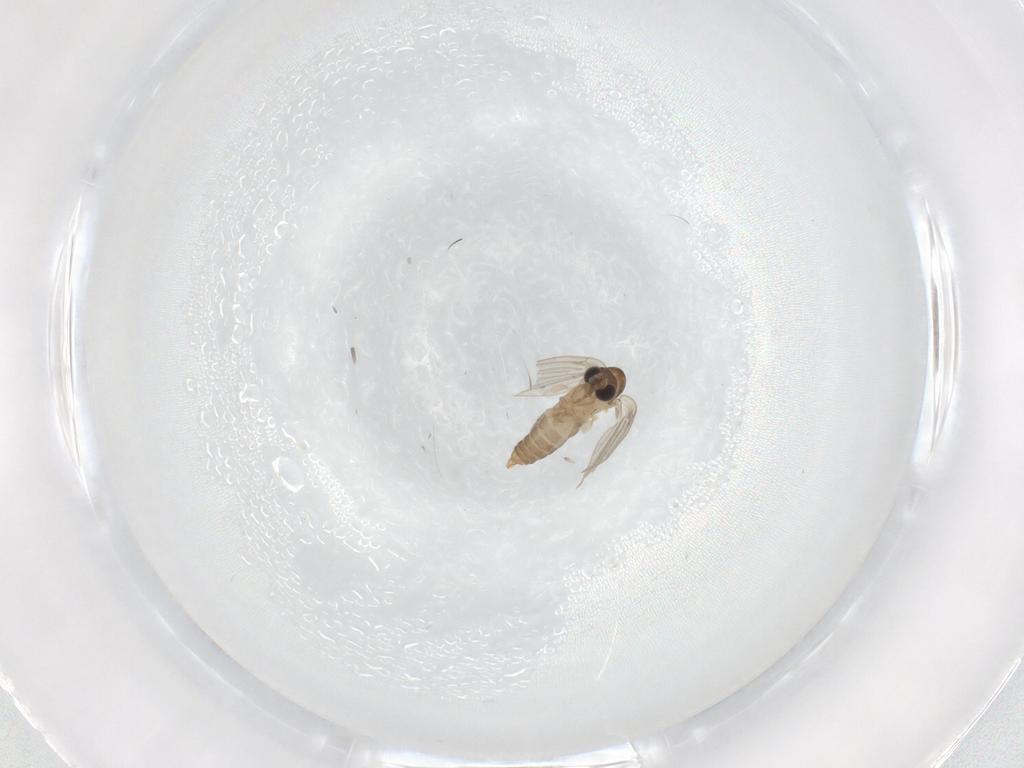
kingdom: Animalia
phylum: Arthropoda
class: Insecta
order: Diptera
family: Psychodidae
